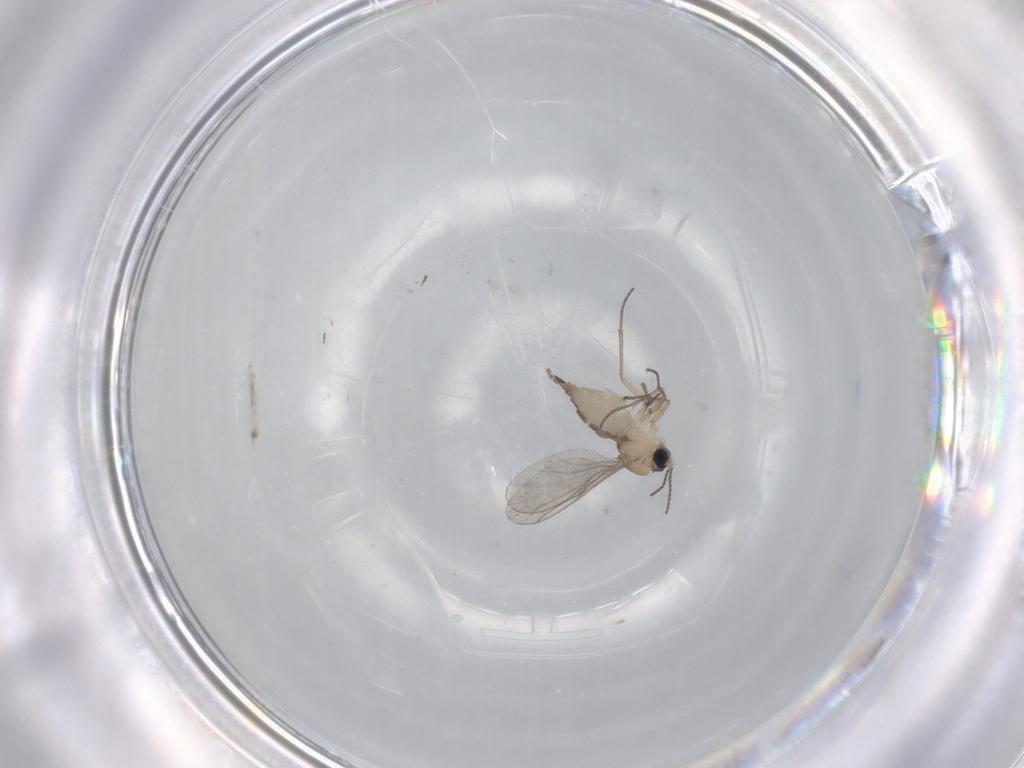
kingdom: Animalia
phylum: Arthropoda
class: Insecta
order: Diptera
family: Sciaridae
